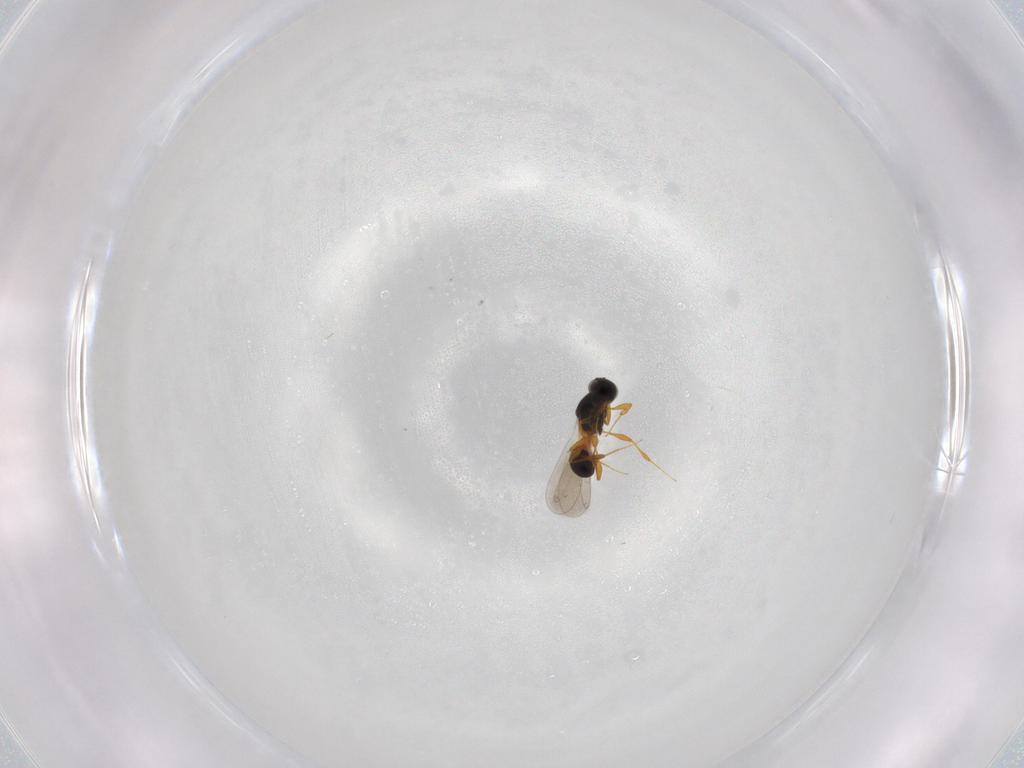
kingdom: Animalia
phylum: Arthropoda
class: Insecta
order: Hymenoptera
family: Platygastridae
